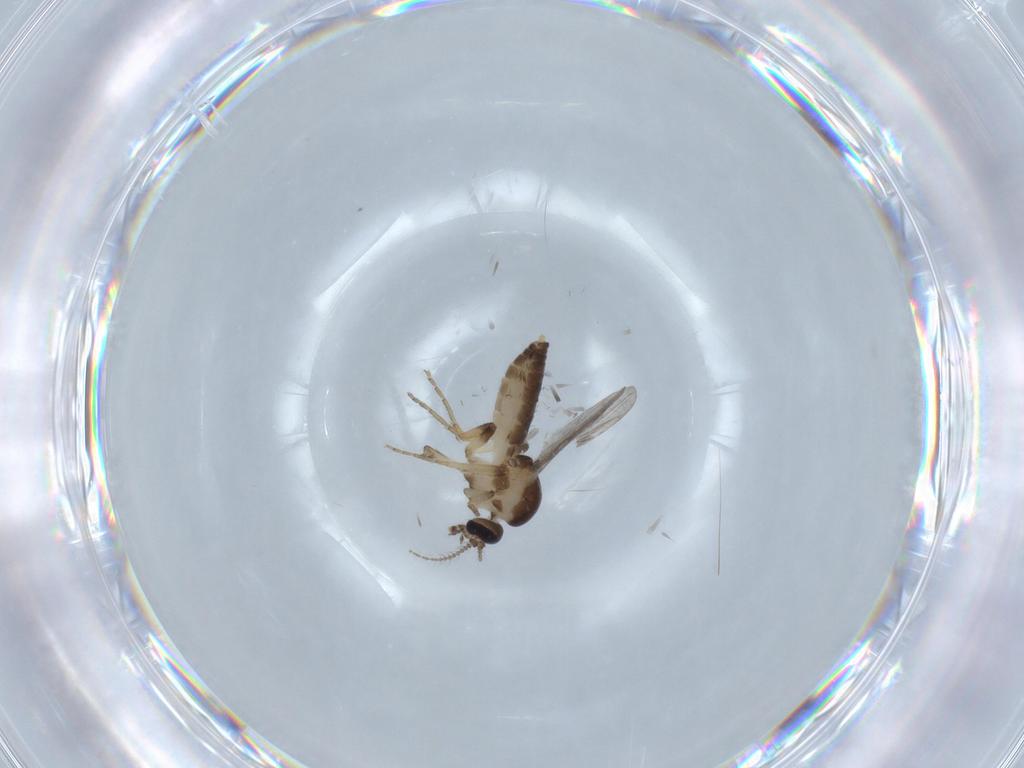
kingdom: Animalia
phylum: Arthropoda
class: Insecta
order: Diptera
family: Ceratopogonidae
